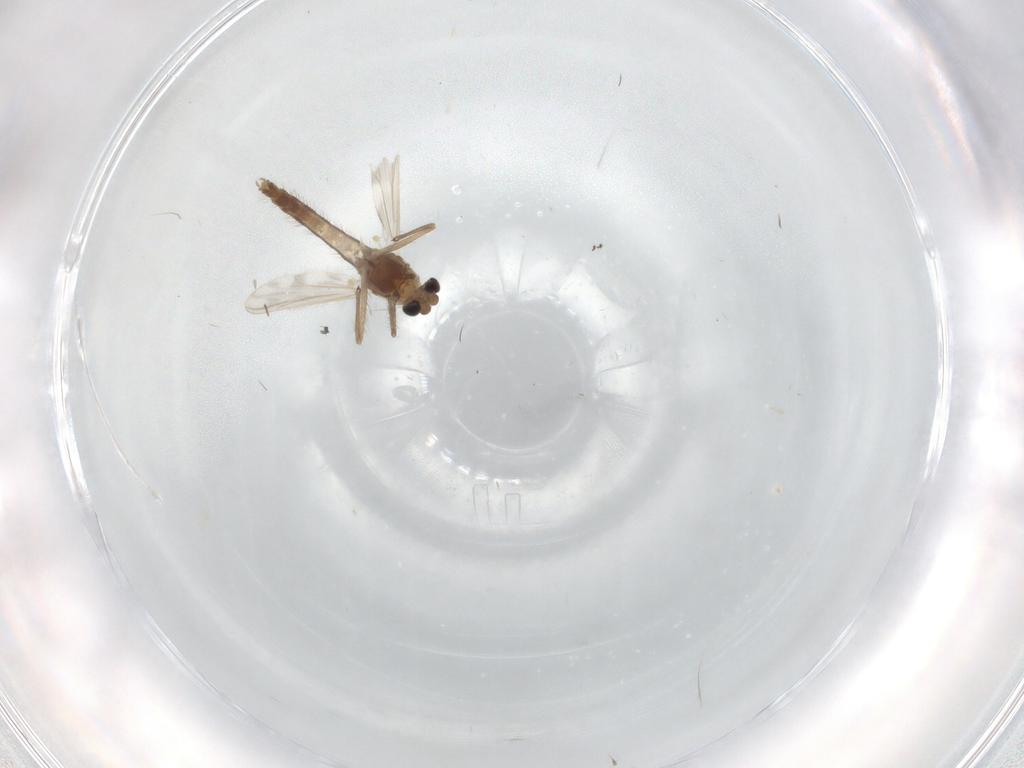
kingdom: Animalia
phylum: Arthropoda
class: Insecta
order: Diptera
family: Chironomidae
